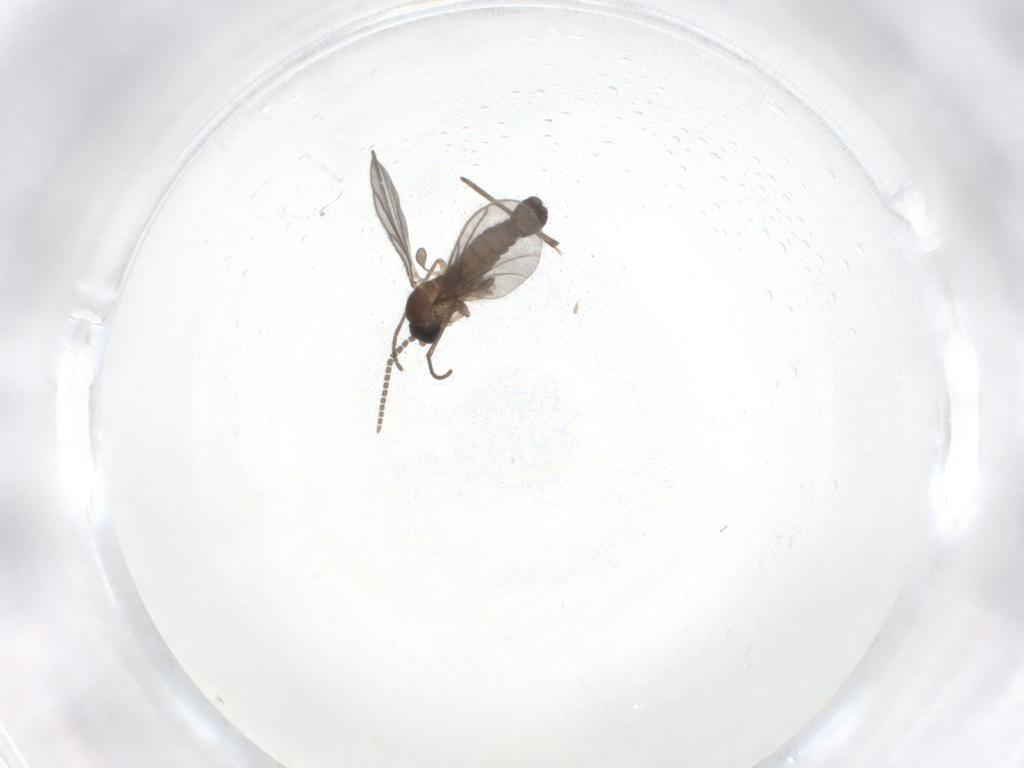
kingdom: Animalia
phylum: Arthropoda
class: Insecta
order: Diptera
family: Sciaridae
